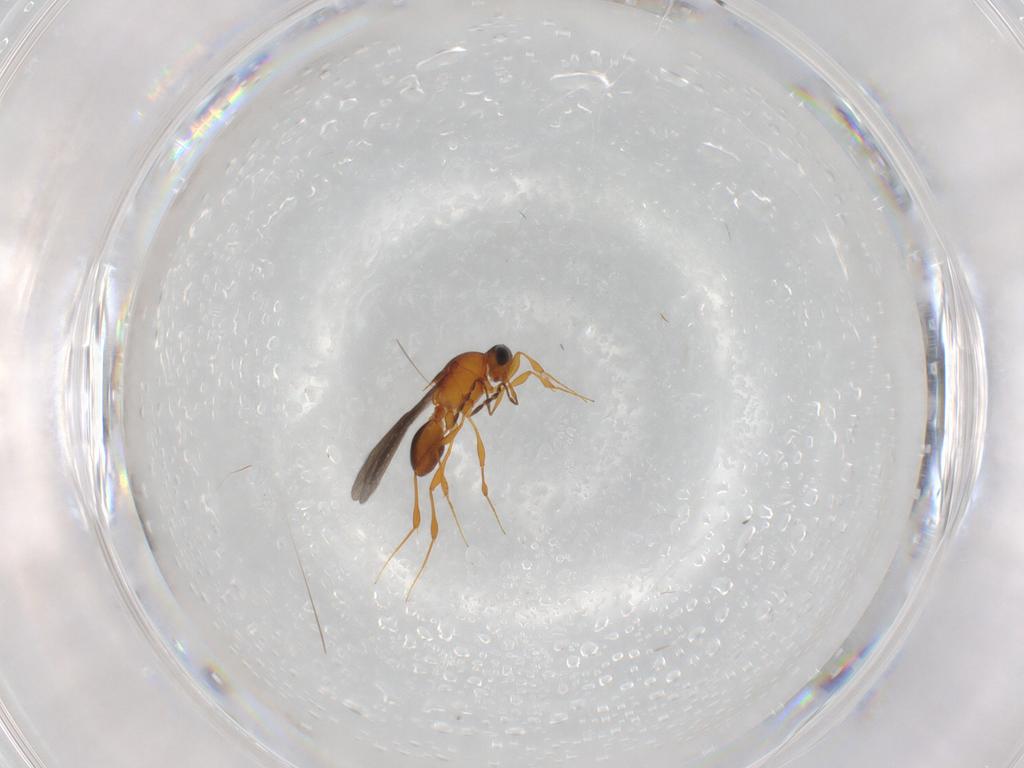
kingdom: Animalia
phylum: Arthropoda
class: Insecta
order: Hymenoptera
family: Platygastridae
